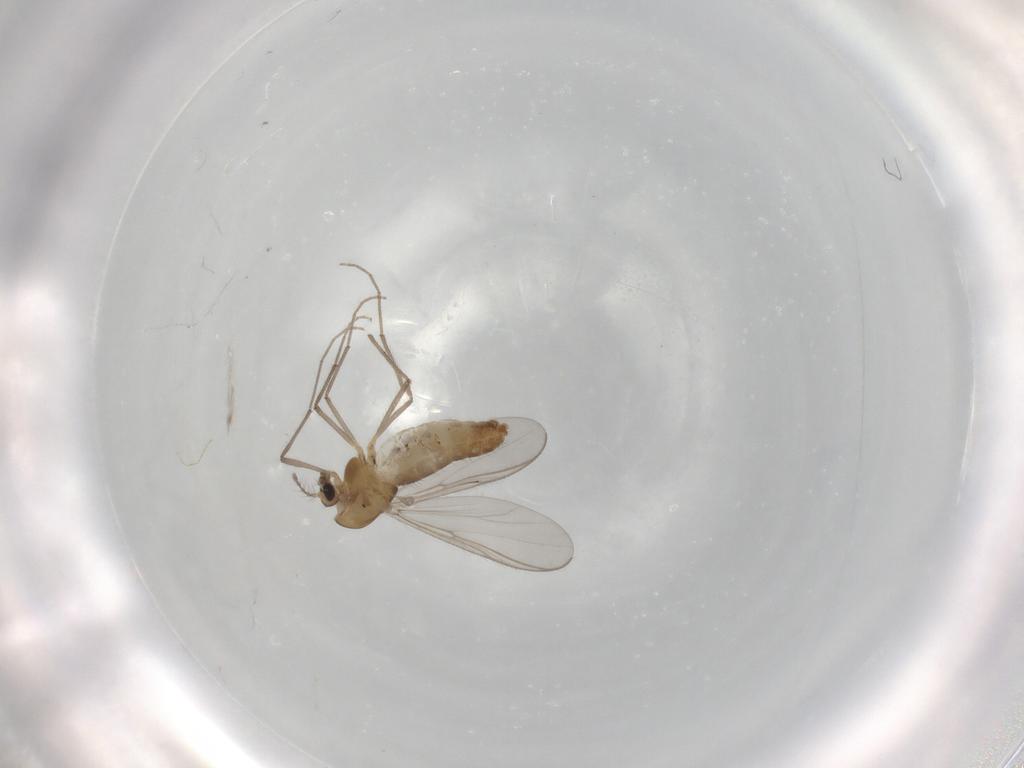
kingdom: Animalia
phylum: Arthropoda
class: Insecta
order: Diptera
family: Chironomidae
